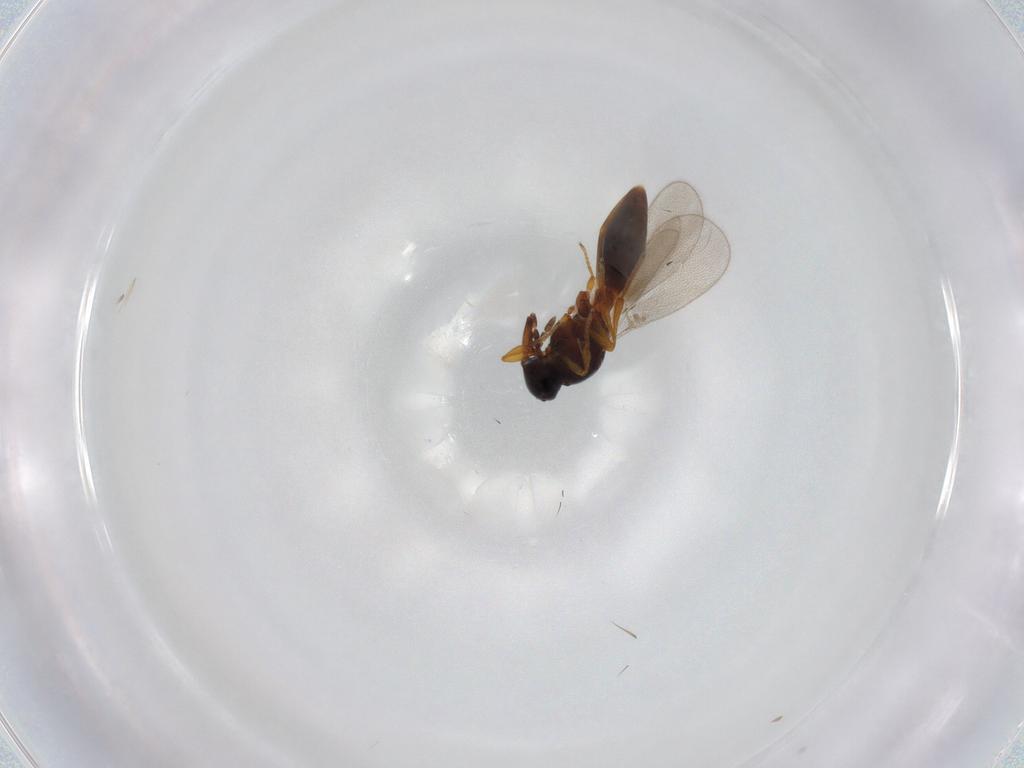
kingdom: Animalia
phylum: Arthropoda
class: Insecta
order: Hymenoptera
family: Platygastridae
